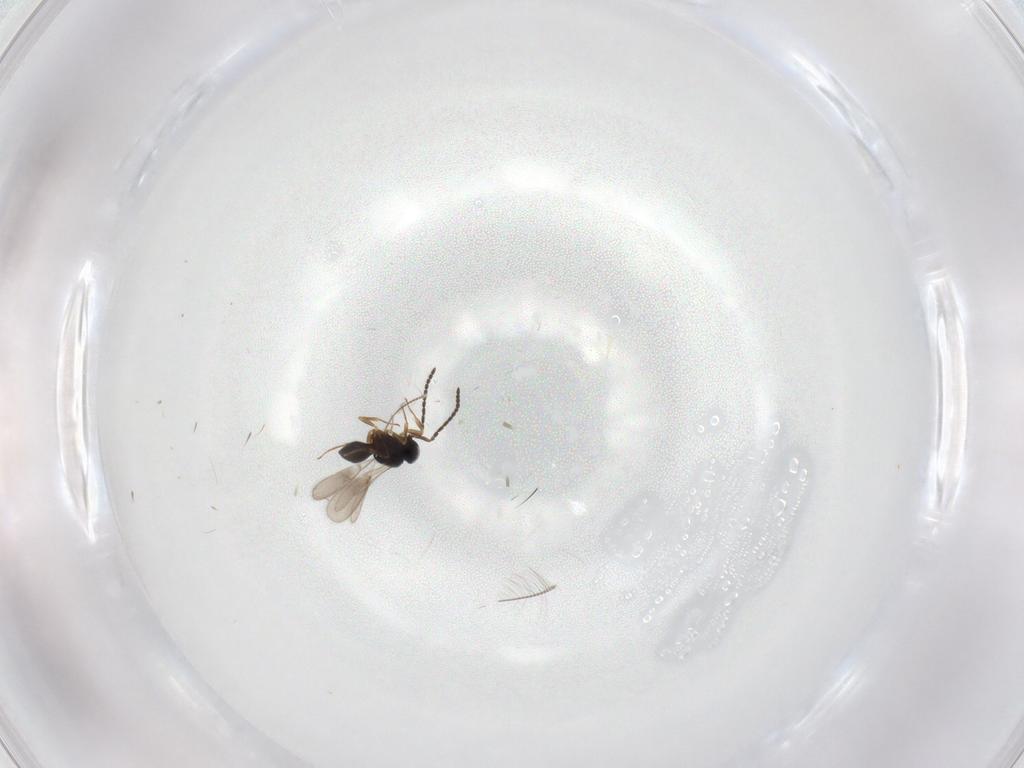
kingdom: Animalia
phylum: Arthropoda
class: Insecta
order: Hymenoptera
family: Scelionidae
